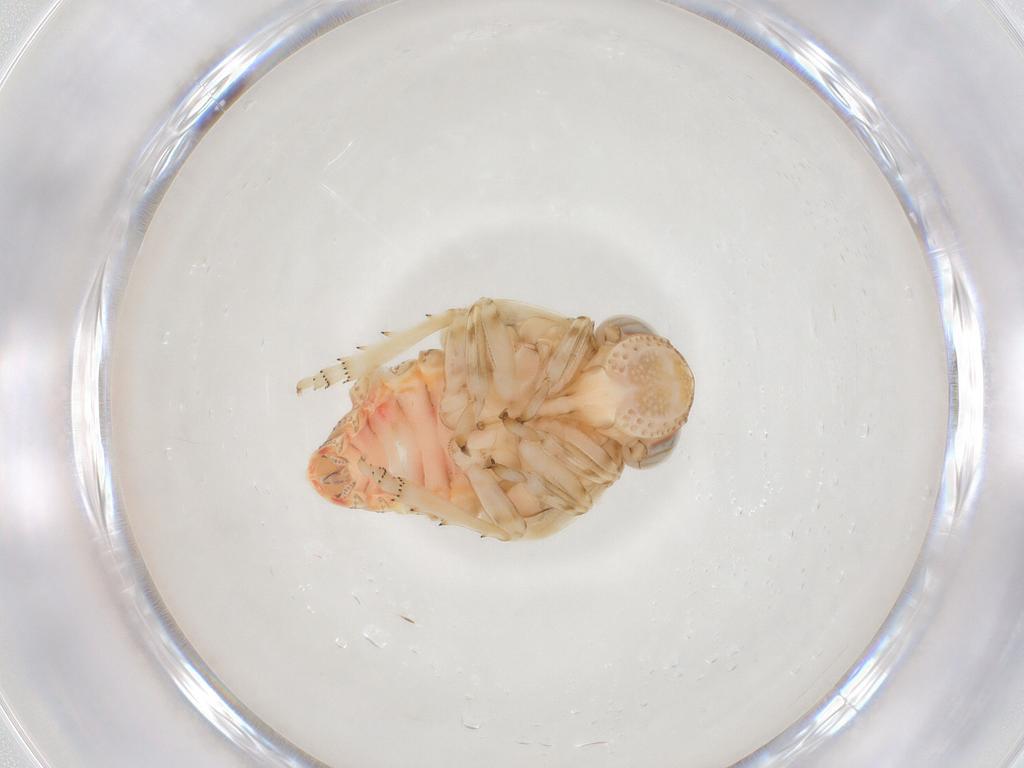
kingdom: Animalia
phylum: Arthropoda
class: Insecta
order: Hemiptera
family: Issidae
